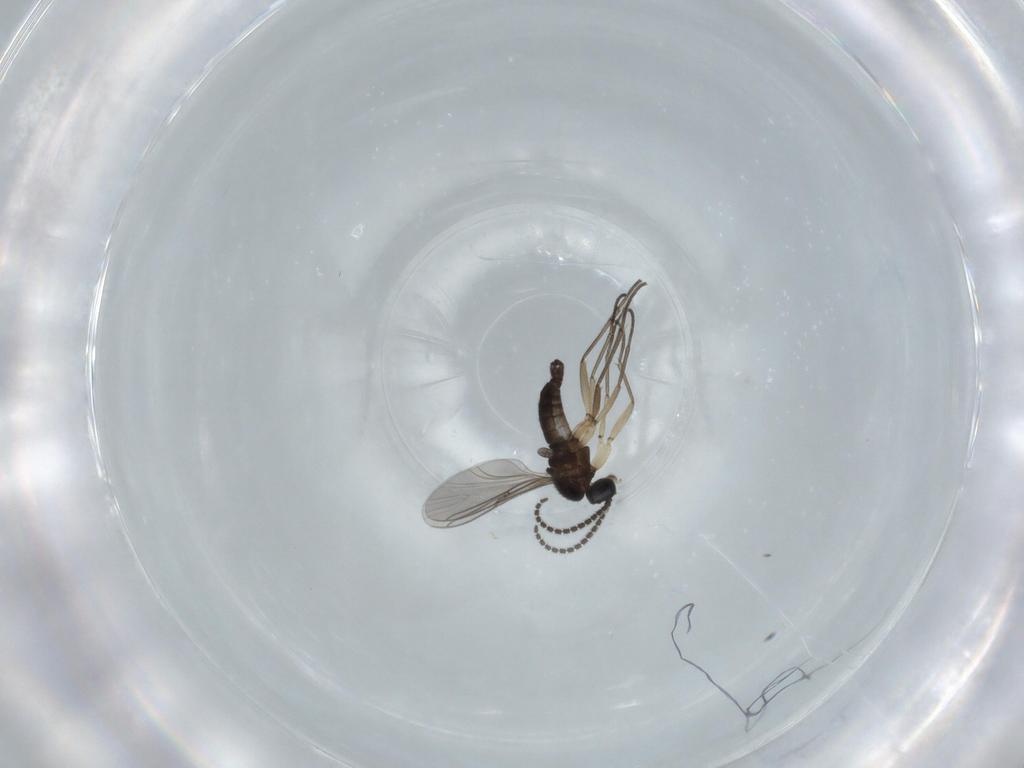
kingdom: Animalia
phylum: Arthropoda
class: Insecta
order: Diptera
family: Sciaridae
